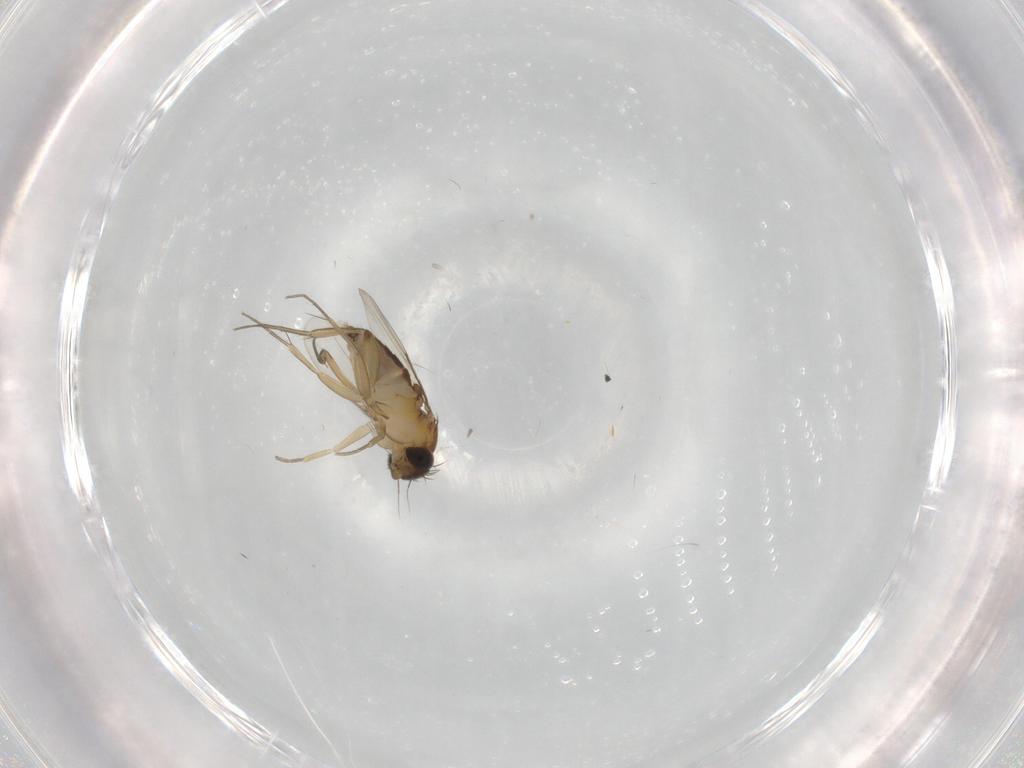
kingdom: Animalia
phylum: Arthropoda
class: Insecta
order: Diptera
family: Phoridae
